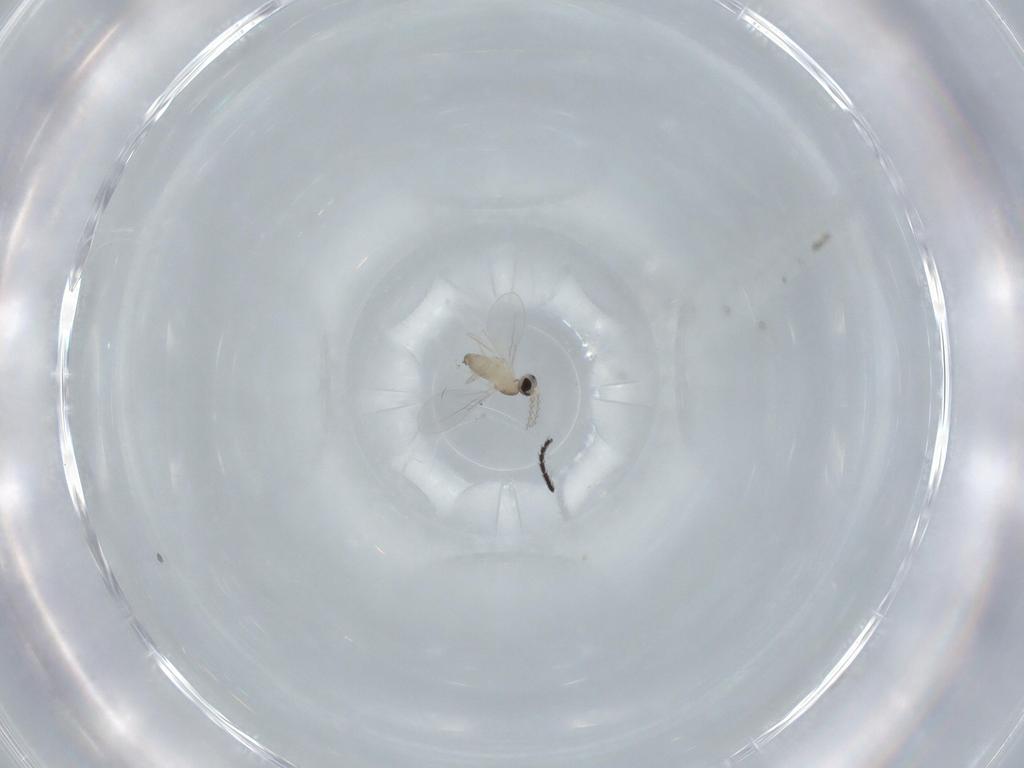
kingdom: Animalia
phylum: Arthropoda
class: Insecta
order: Diptera
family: Cecidomyiidae
